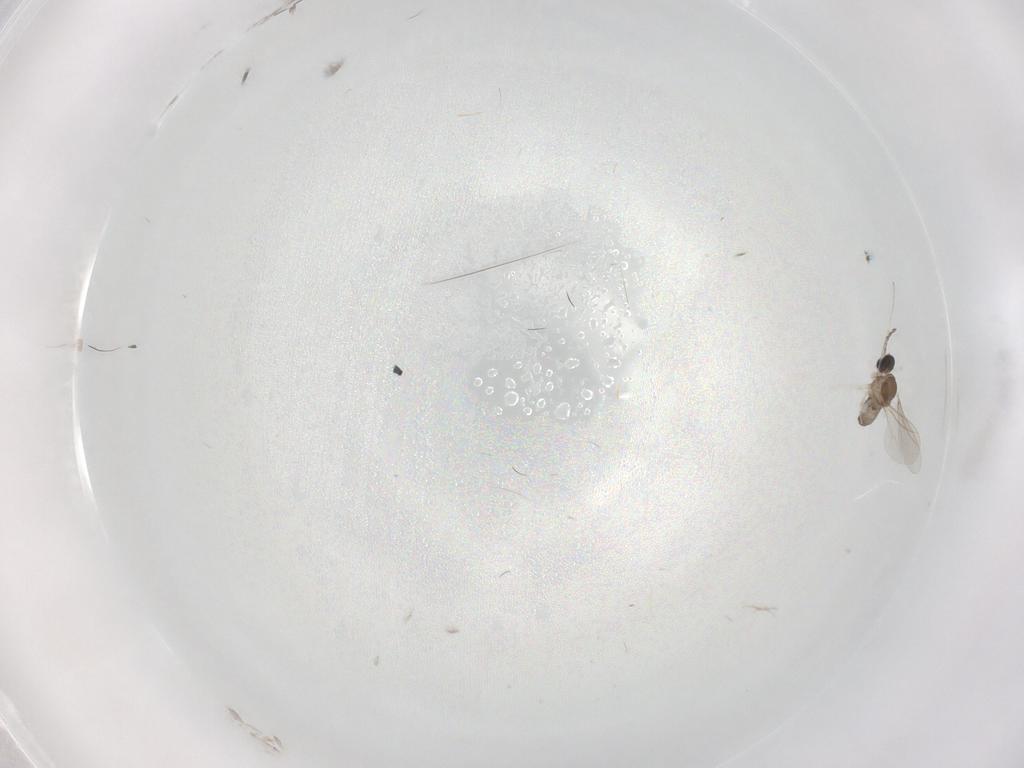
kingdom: Animalia
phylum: Arthropoda
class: Insecta
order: Diptera
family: Cecidomyiidae
